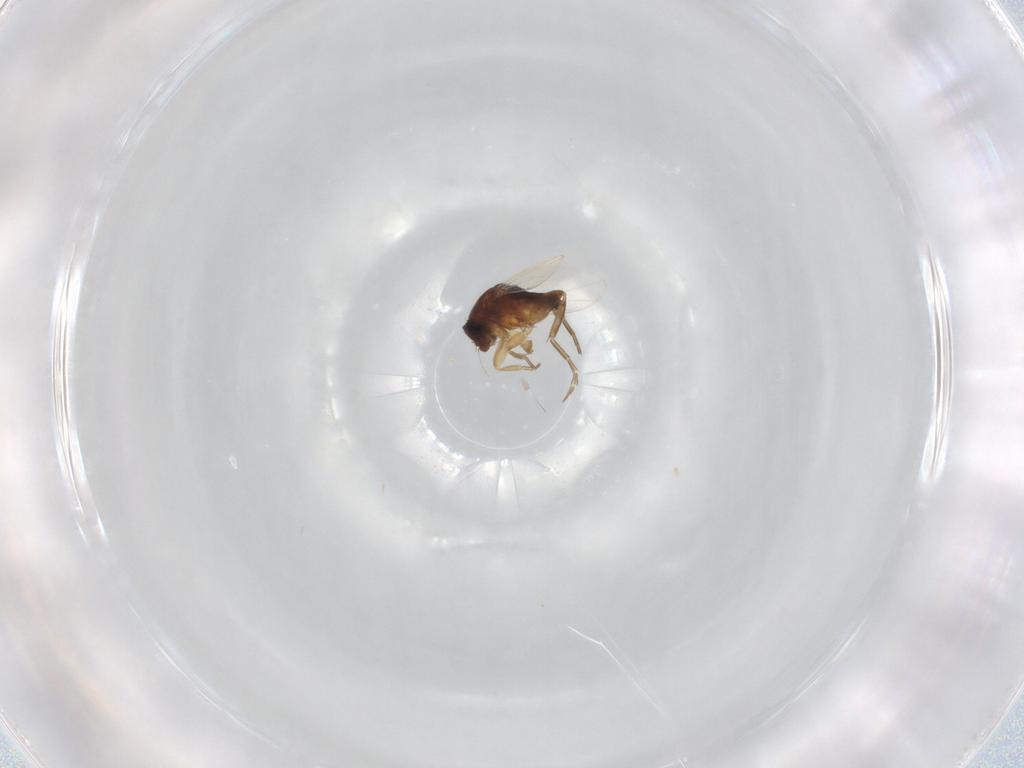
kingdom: Animalia
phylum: Arthropoda
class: Insecta
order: Diptera
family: Phoridae
